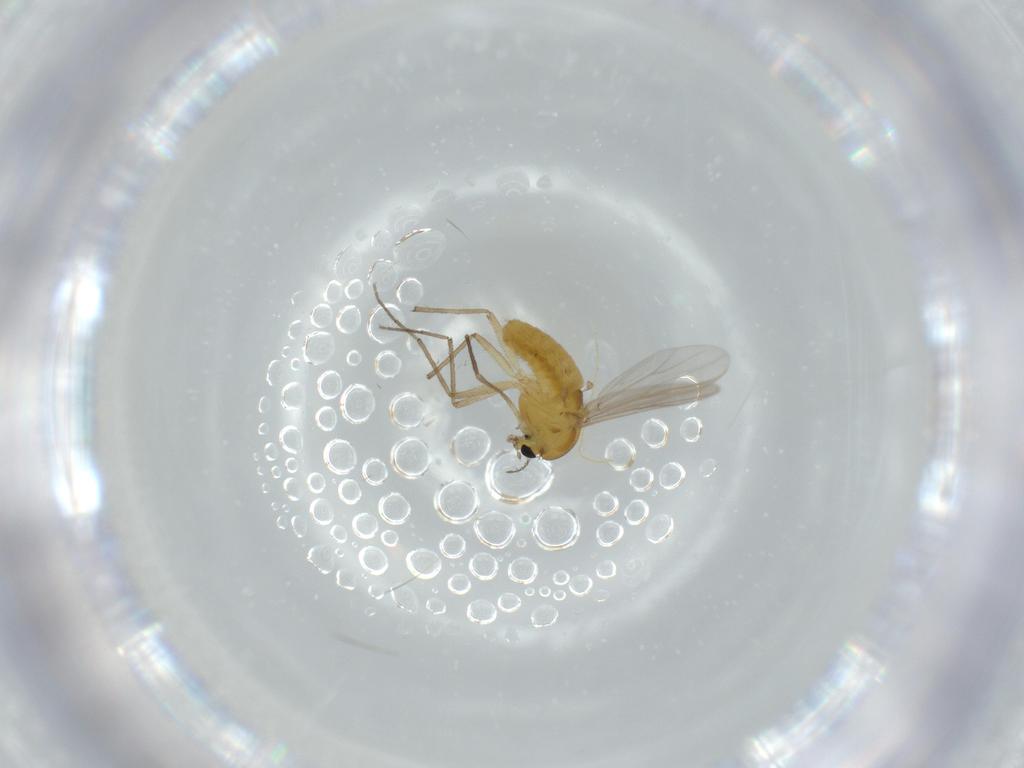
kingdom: Animalia
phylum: Arthropoda
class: Insecta
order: Diptera
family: Chironomidae
